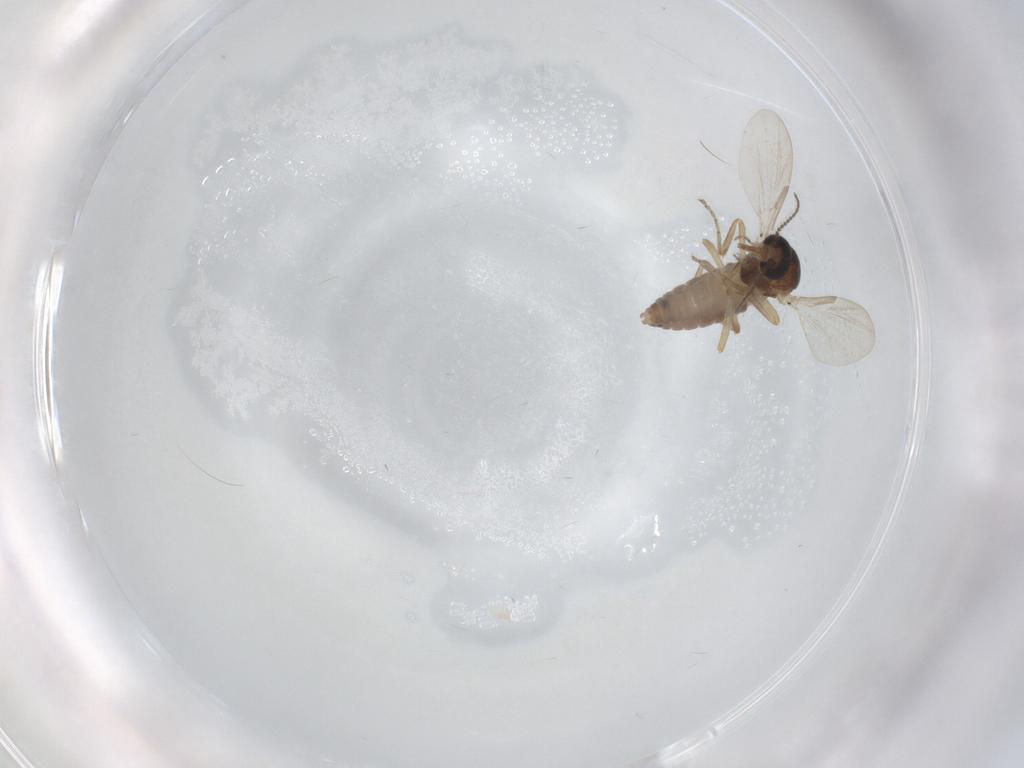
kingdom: Animalia
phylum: Arthropoda
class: Insecta
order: Diptera
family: Ceratopogonidae
